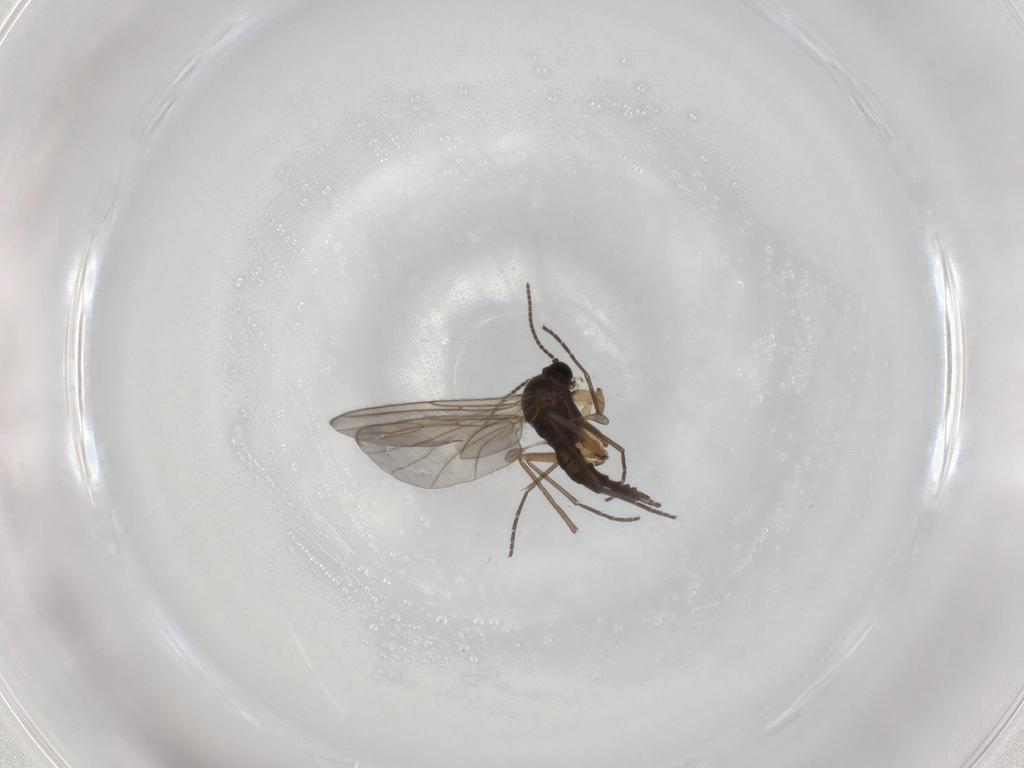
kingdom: Animalia
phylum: Arthropoda
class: Insecta
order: Diptera
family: Sciaridae
